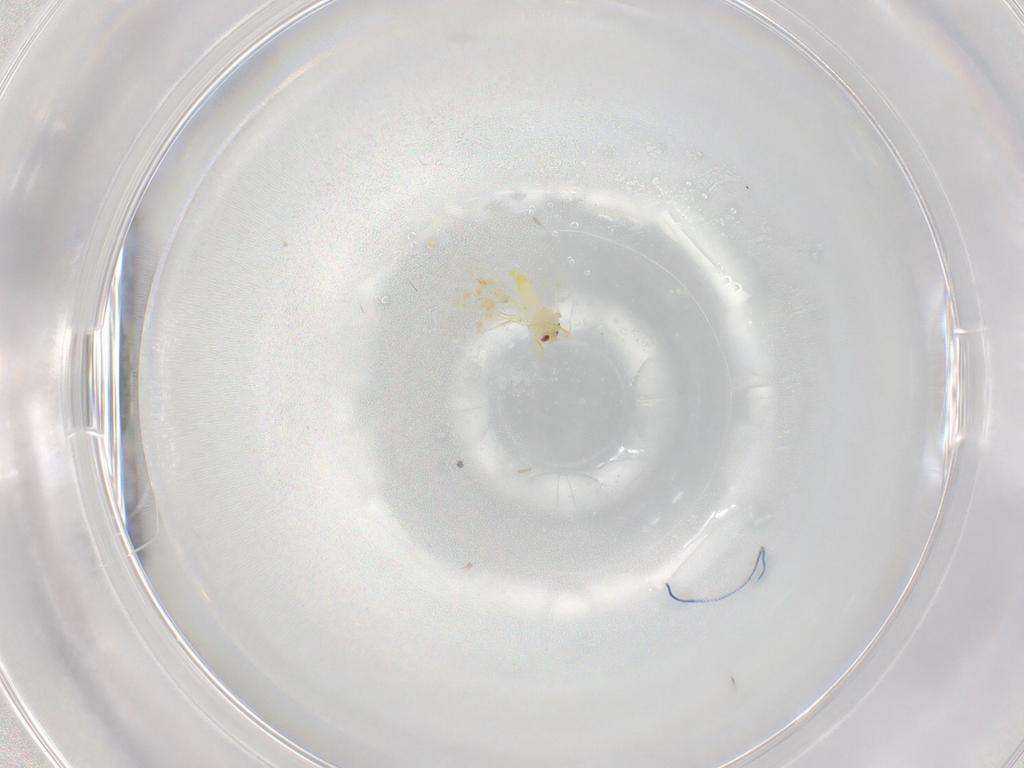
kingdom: Animalia
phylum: Arthropoda
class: Insecta
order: Hemiptera
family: Aleyrodidae
